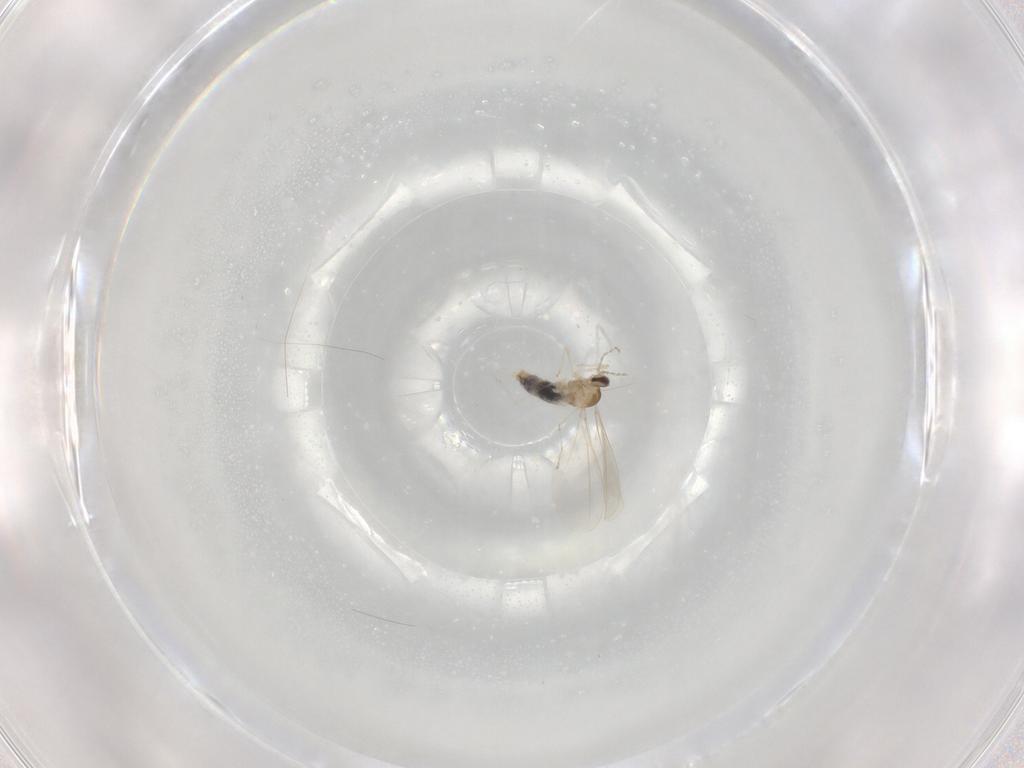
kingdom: Animalia
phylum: Arthropoda
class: Insecta
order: Diptera
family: Phoridae
